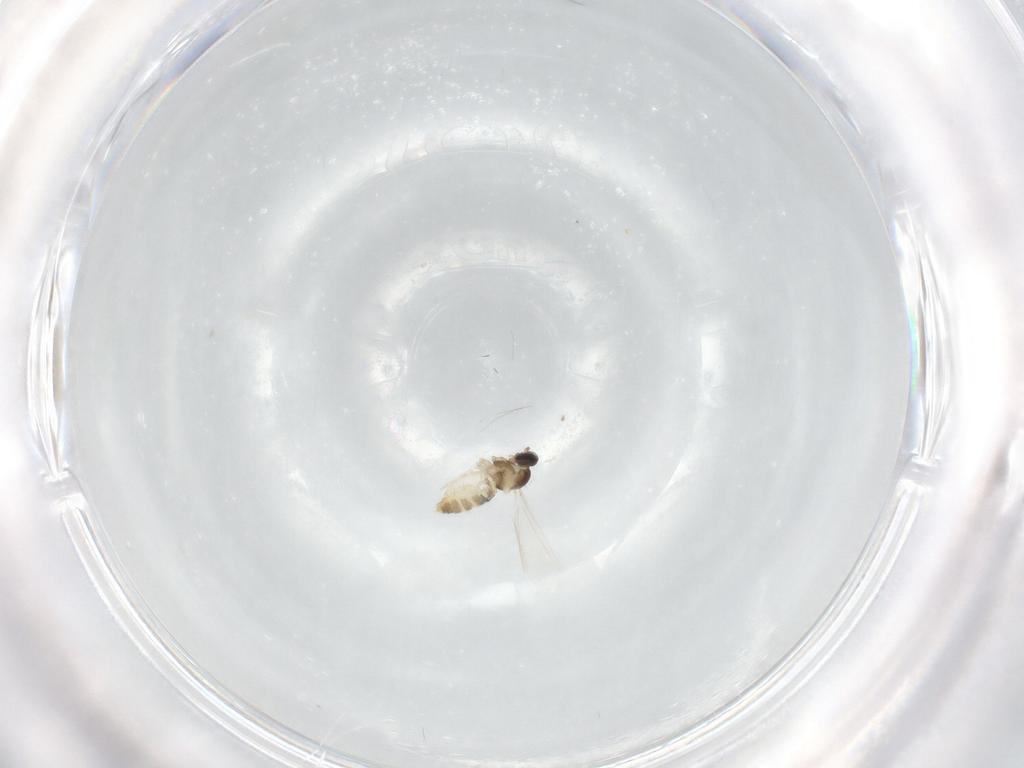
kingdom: Animalia
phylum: Arthropoda
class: Insecta
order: Diptera
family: Cecidomyiidae
